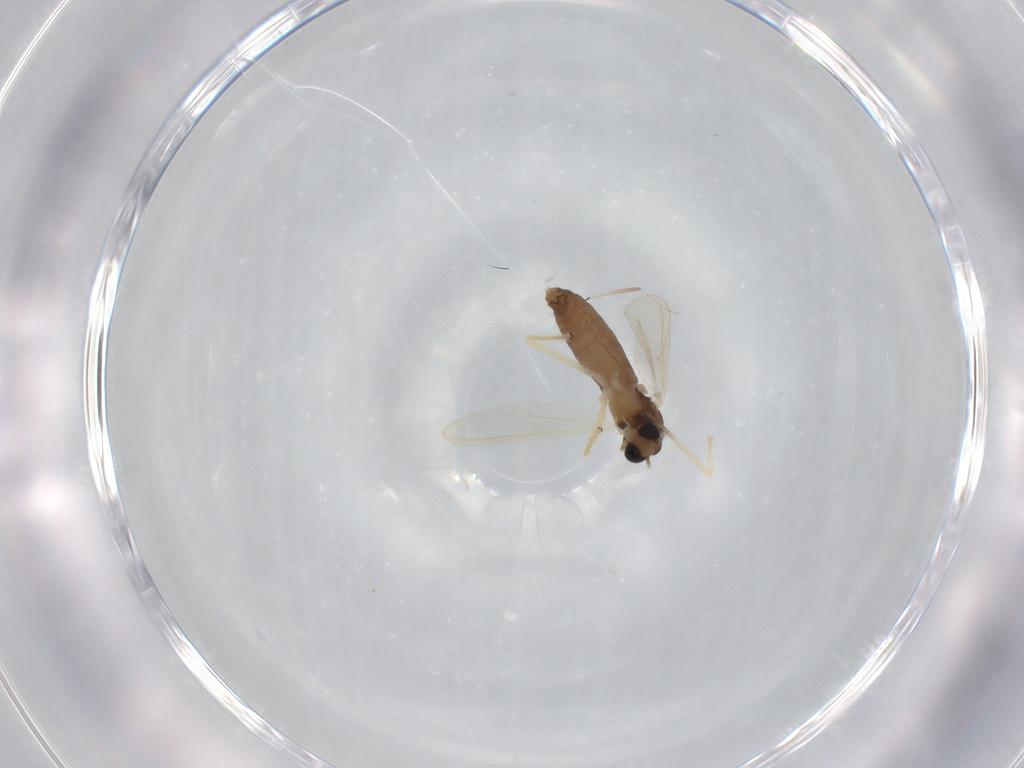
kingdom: Animalia
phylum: Arthropoda
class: Insecta
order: Diptera
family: Chironomidae
